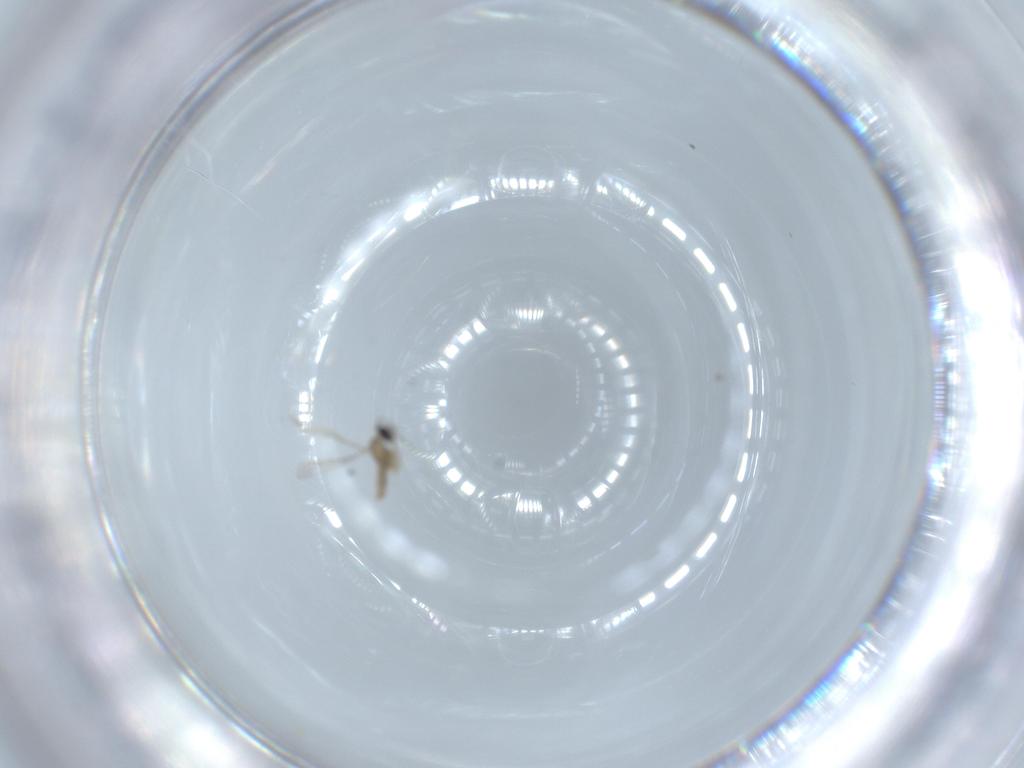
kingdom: Animalia
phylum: Arthropoda
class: Insecta
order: Diptera
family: Cecidomyiidae
